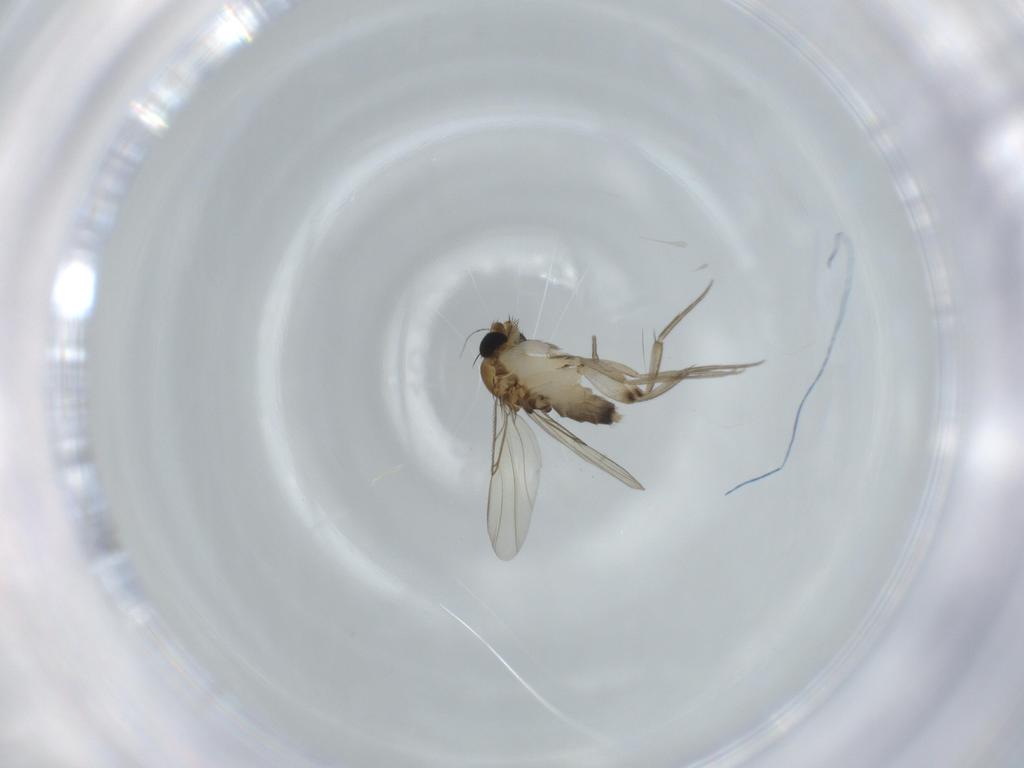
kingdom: Animalia
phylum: Arthropoda
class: Insecta
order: Diptera
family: Phoridae
